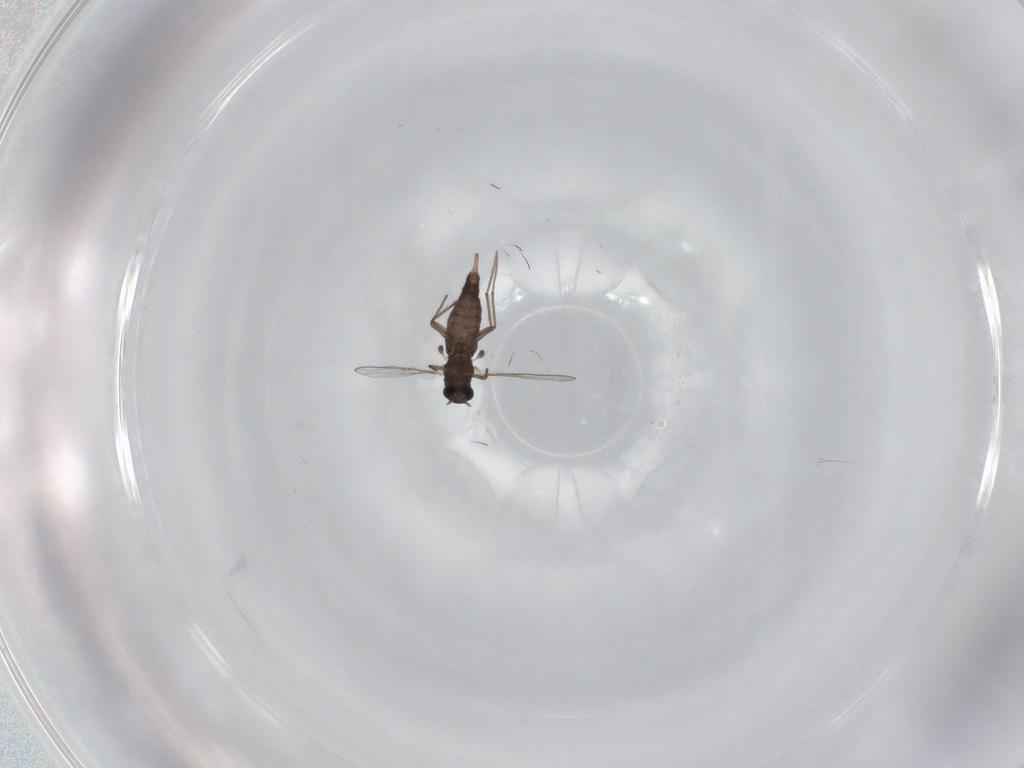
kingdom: Animalia
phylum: Arthropoda
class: Insecta
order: Diptera
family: Chironomidae
